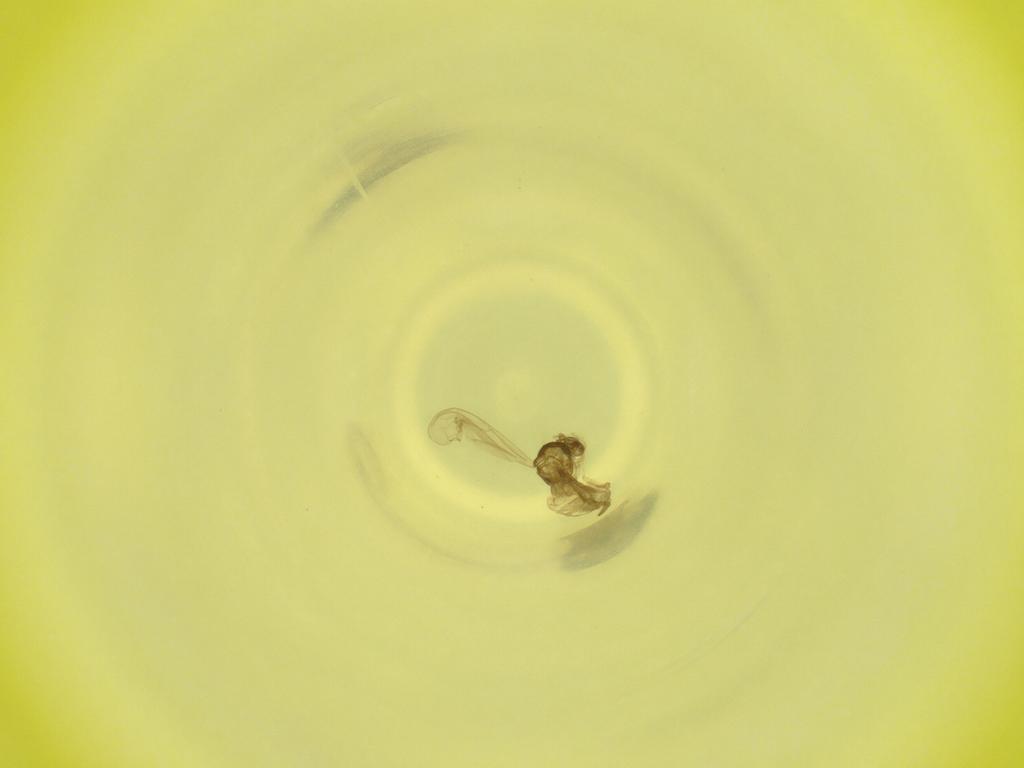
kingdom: Animalia
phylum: Arthropoda
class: Insecta
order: Diptera
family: Cecidomyiidae
